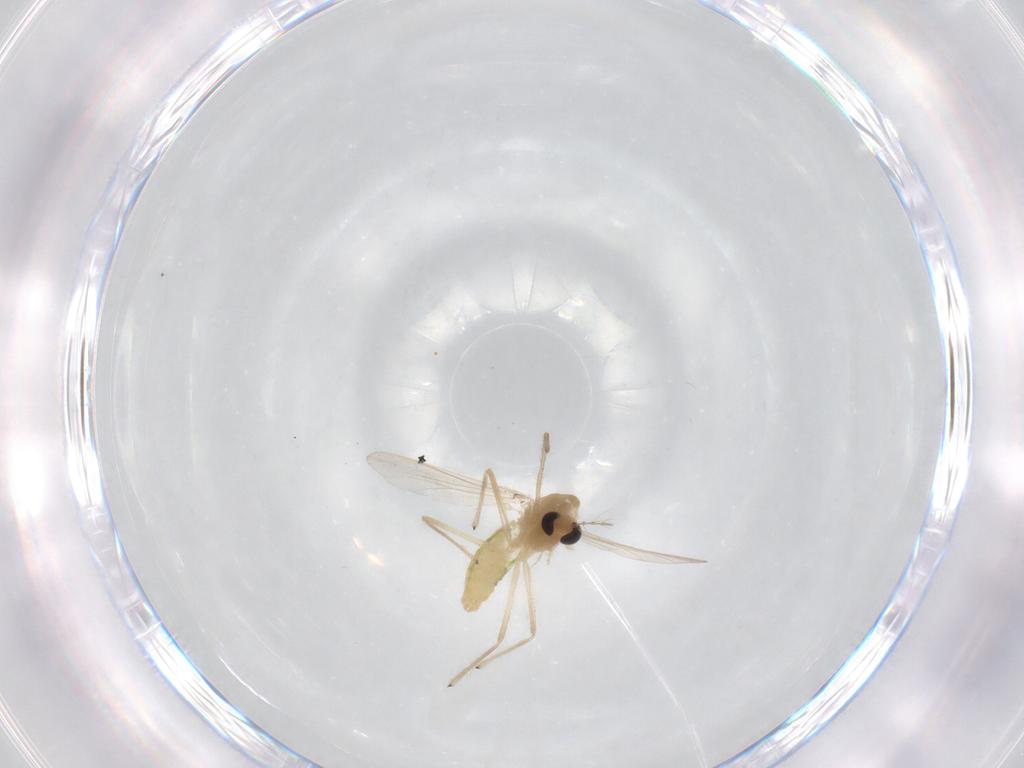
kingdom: Animalia
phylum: Arthropoda
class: Insecta
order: Diptera
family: Chironomidae
